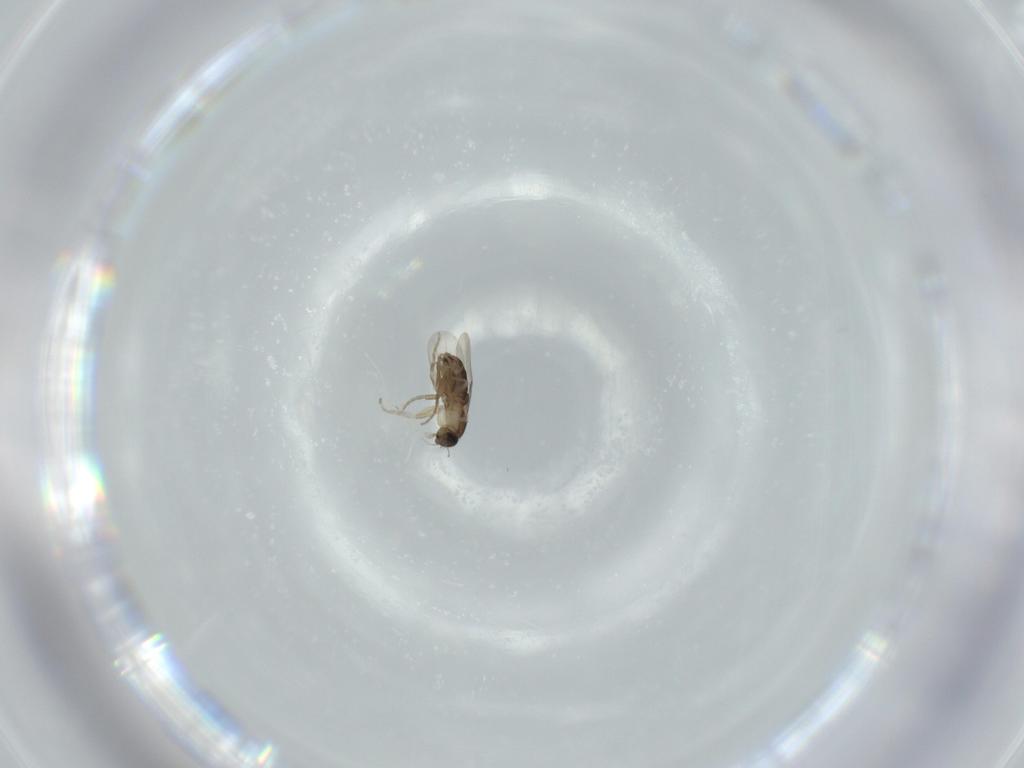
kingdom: Animalia
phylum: Arthropoda
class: Insecta
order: Diptera
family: Phoridae
